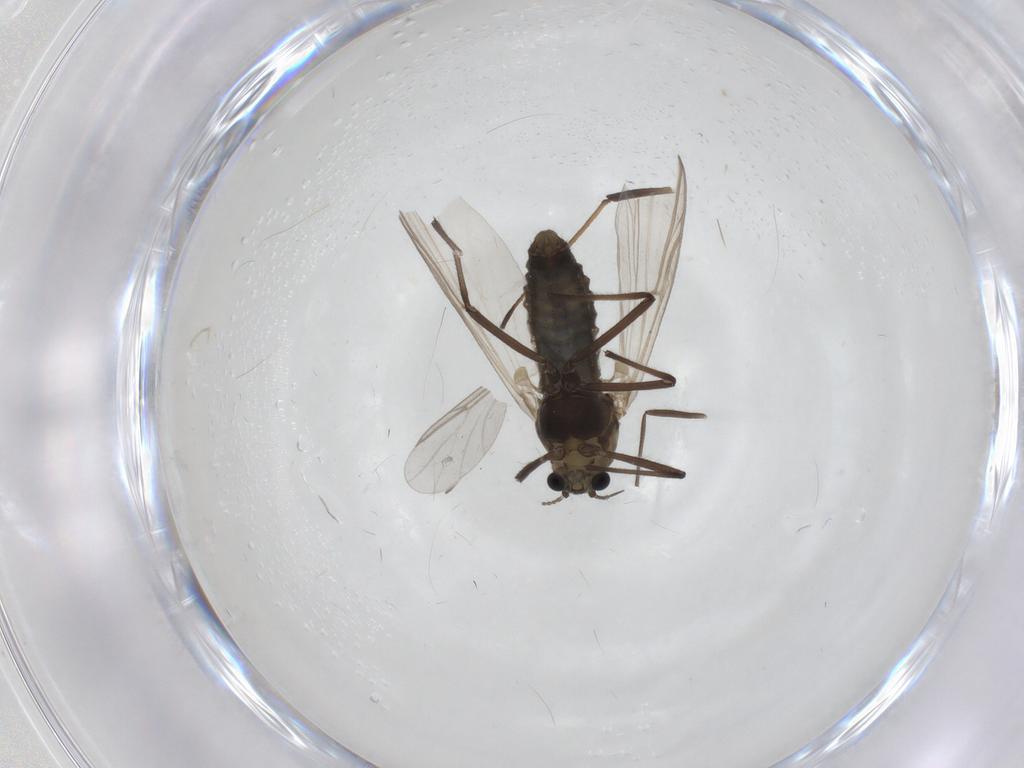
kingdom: Animalia
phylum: Arthropoda
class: Insecta
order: Diptera
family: Chironomidae
